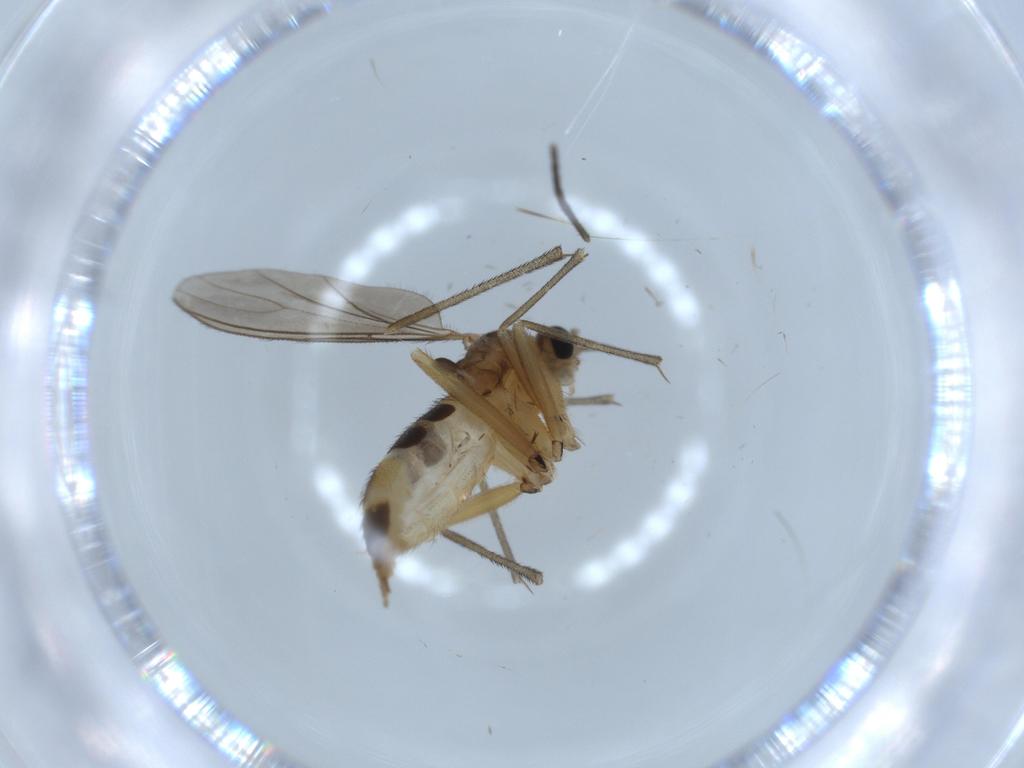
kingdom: Animalia
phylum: Arthropoda
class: Insecta
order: Diptera
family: Sciaridae
